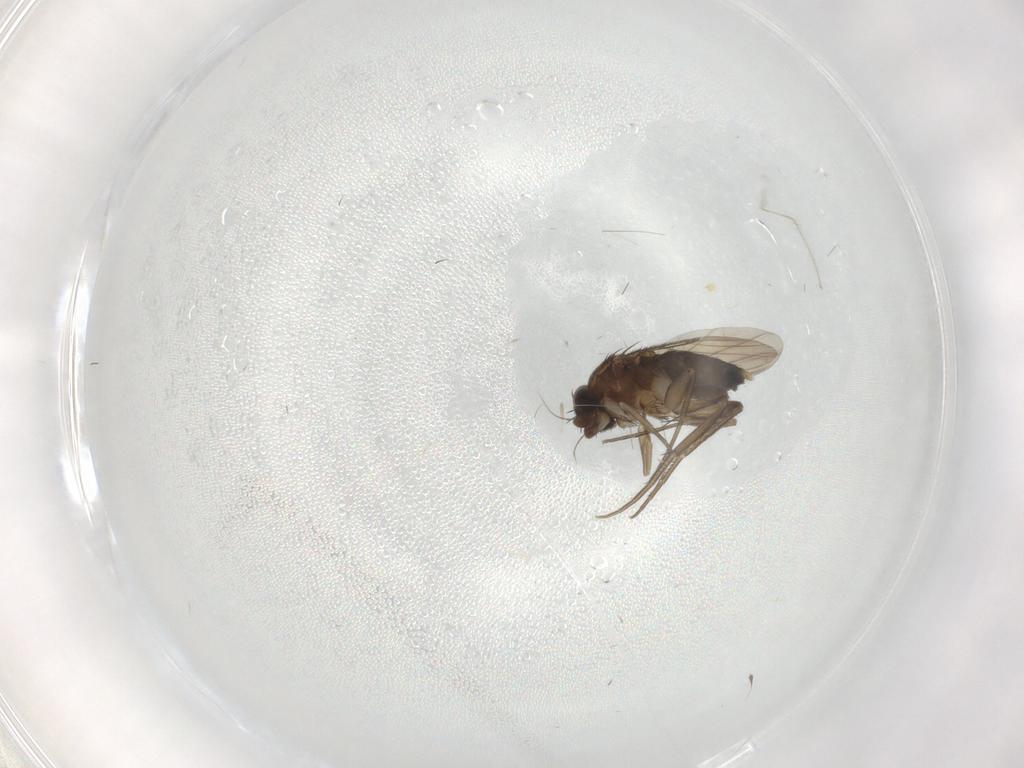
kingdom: Animalia
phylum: Arthropoda
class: Insecta
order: Diptera
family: Phoridae
